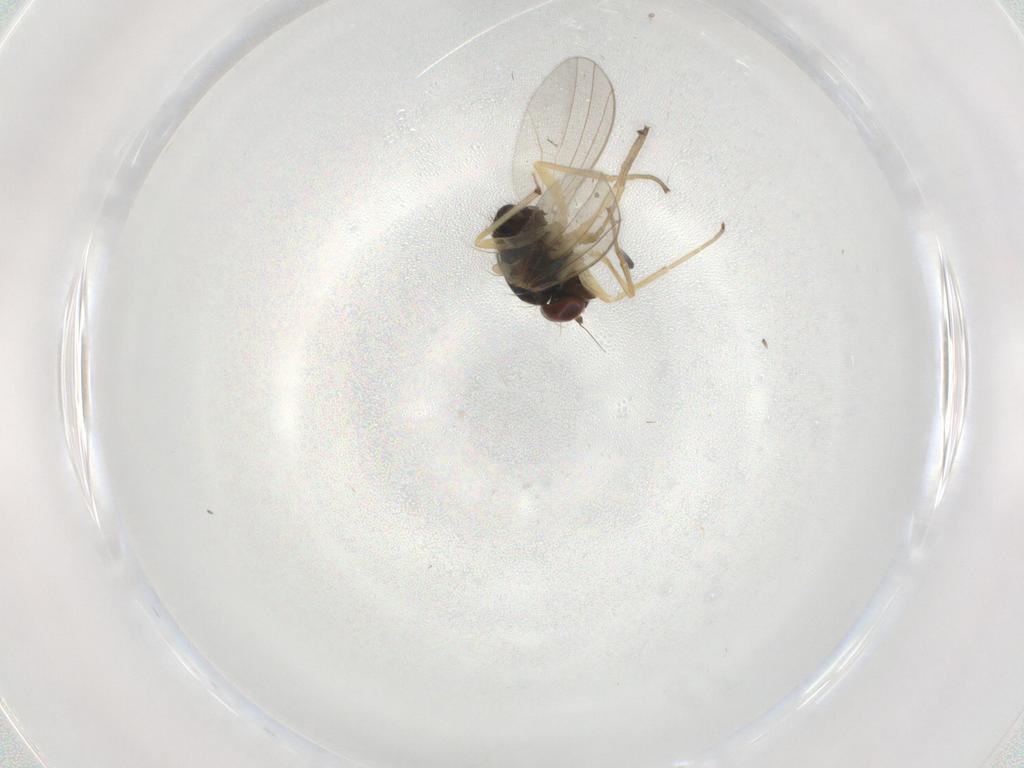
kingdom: Animalia
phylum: Arthropoda
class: Insecta
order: Diptera
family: Dolichopodidae
